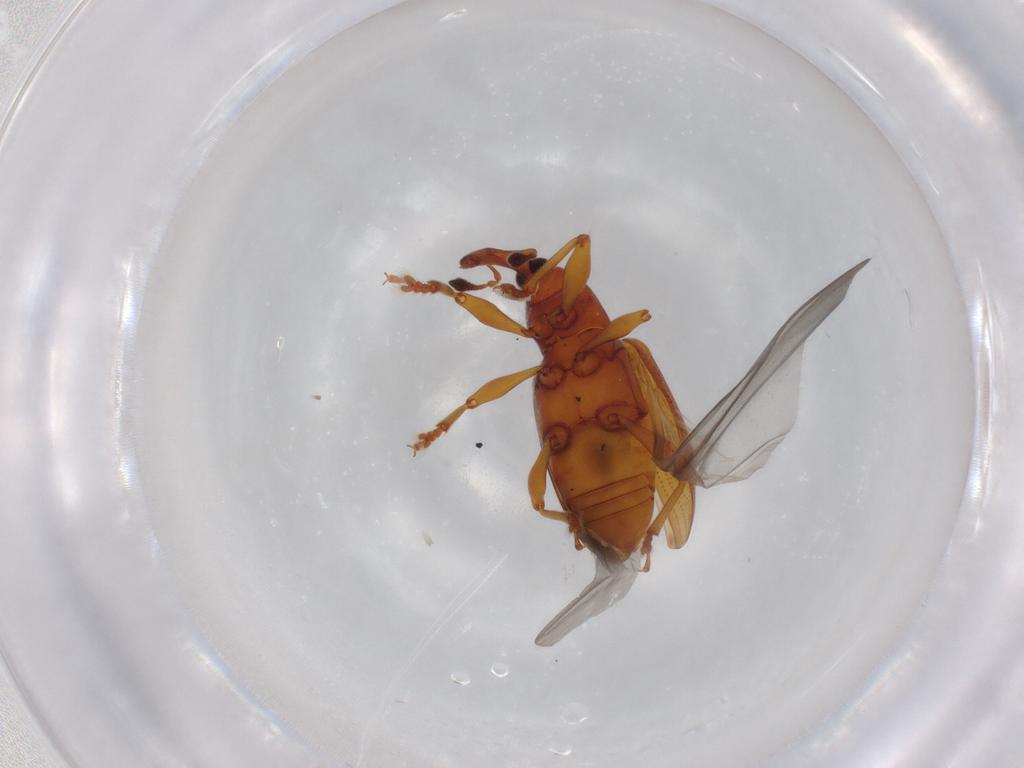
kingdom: Animalia
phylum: Arthropoda
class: Insecta
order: Coleoptera
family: Curculionidae
